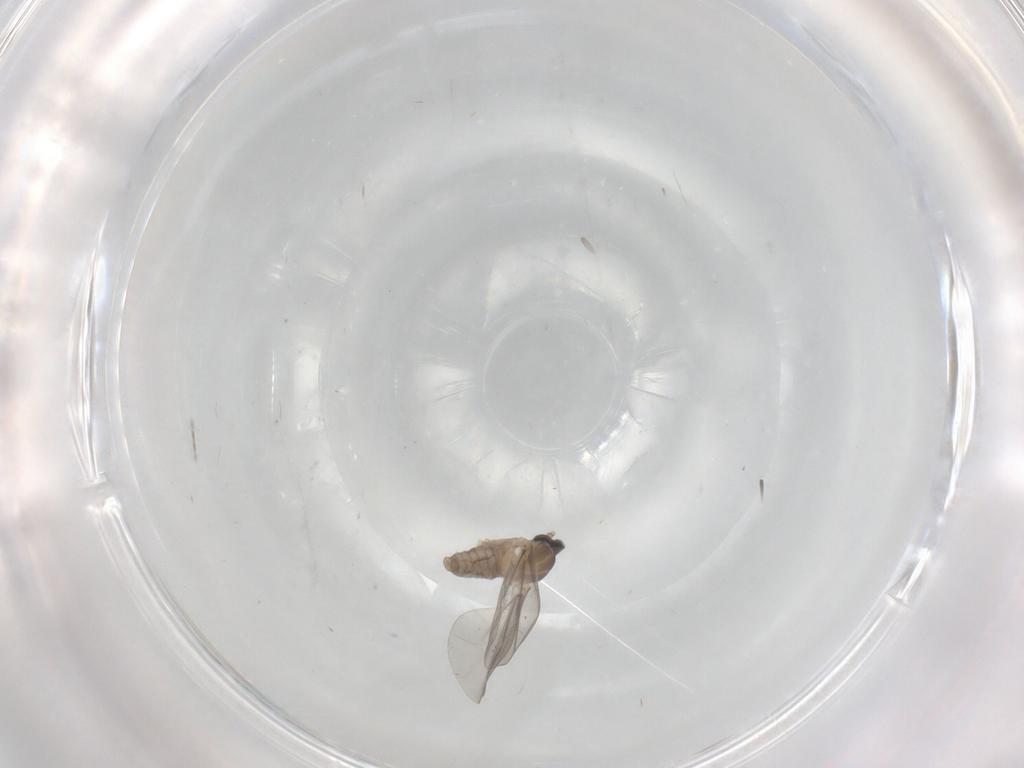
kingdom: Animalia
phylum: Arthropoda
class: Insecta
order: Diptera
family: Cecidomyiidae
